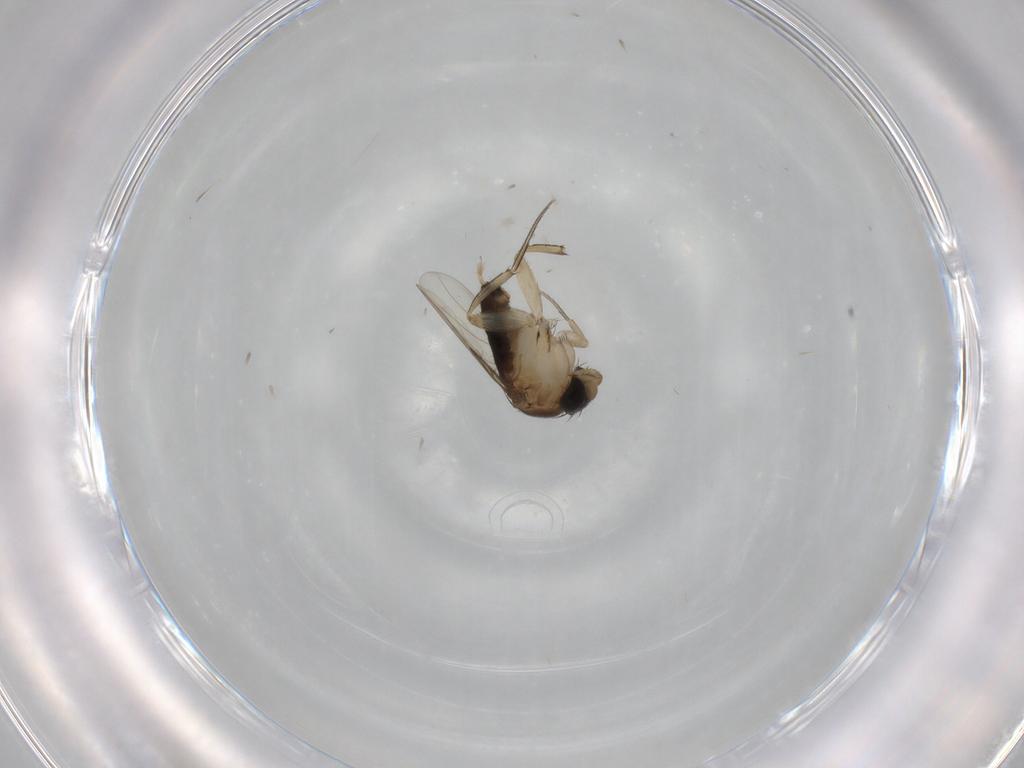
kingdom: Animalia
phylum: Arthropoda
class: Insecta
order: Diptera
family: Phoridae
